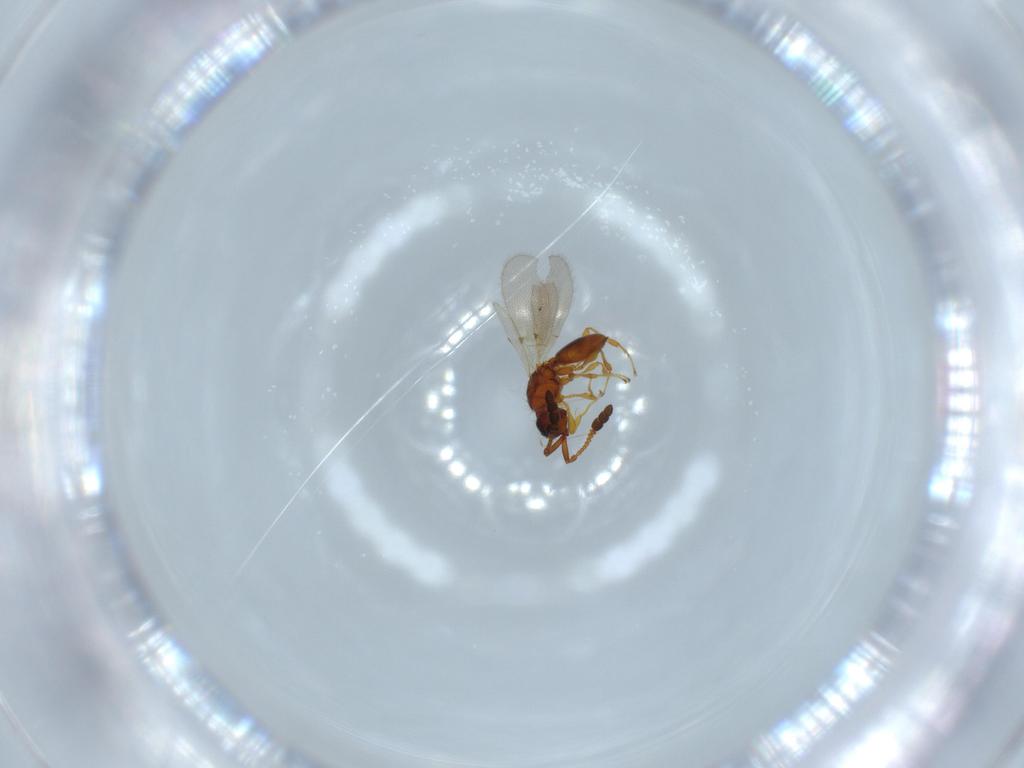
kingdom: Animalia
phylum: Arthropoda
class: Insecta
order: Hymenoptera
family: Diapriidae
